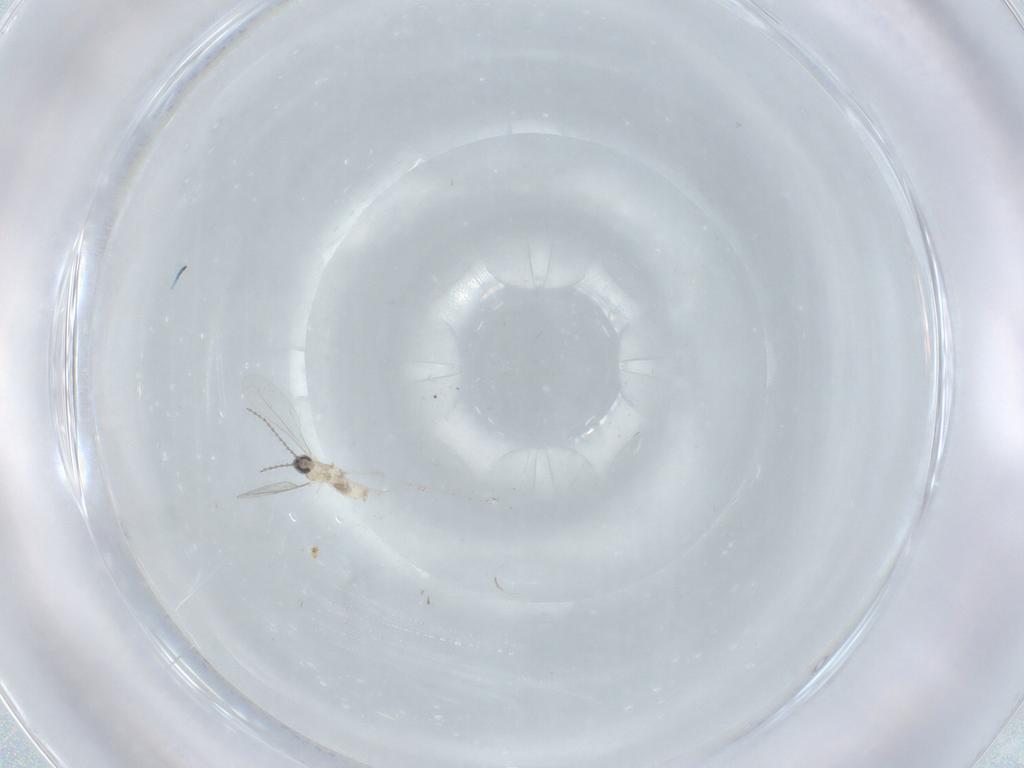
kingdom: Animalia
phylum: Arthropoda
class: Insecta
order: Diptera
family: Cecidomyiidae
